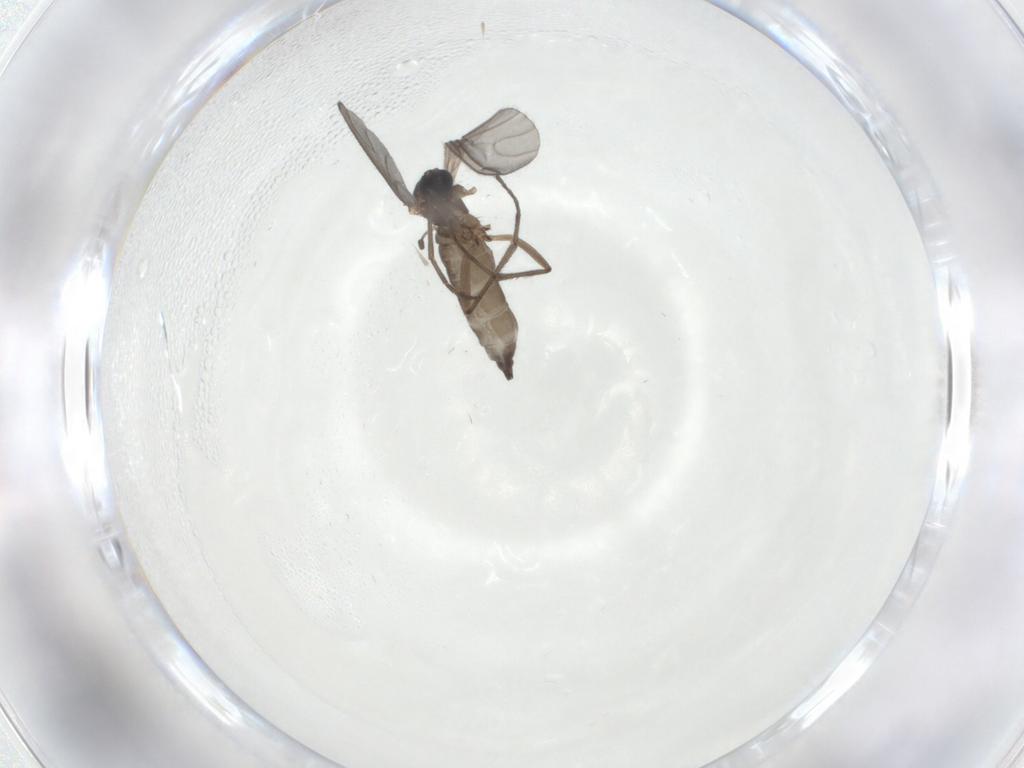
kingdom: Animalia
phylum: Arthropoda
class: Insecta
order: Diptera
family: Sciaridae
